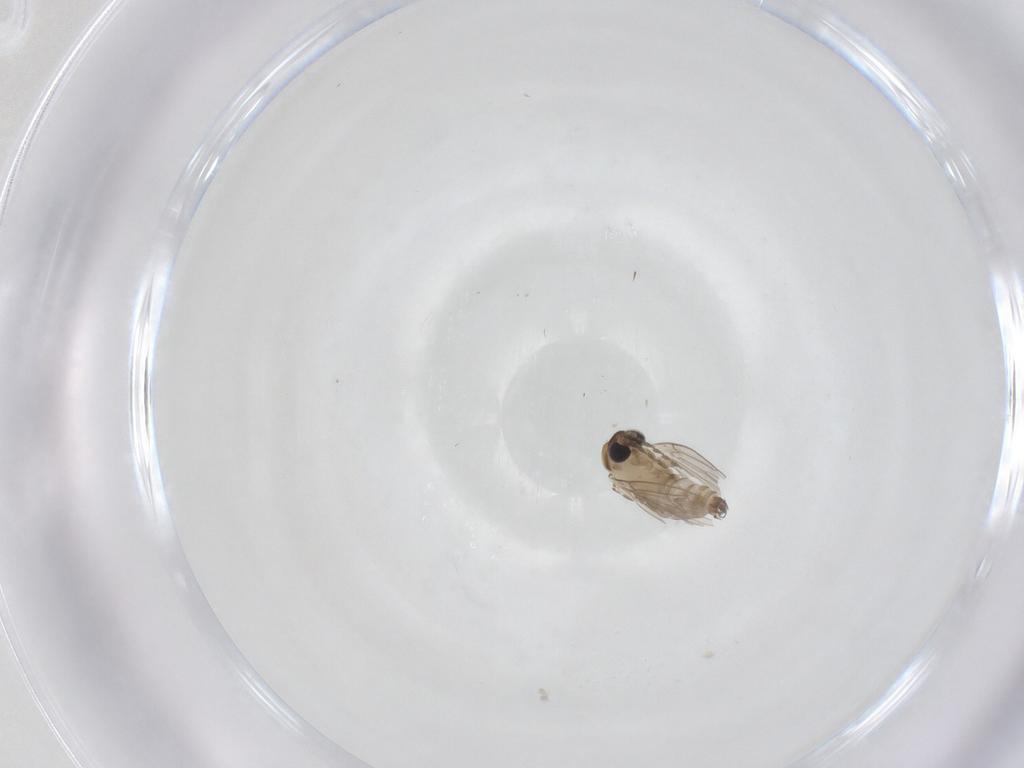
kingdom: Animalia
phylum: Arthropoda
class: Insecta
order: Diptera
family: Psychodidae
